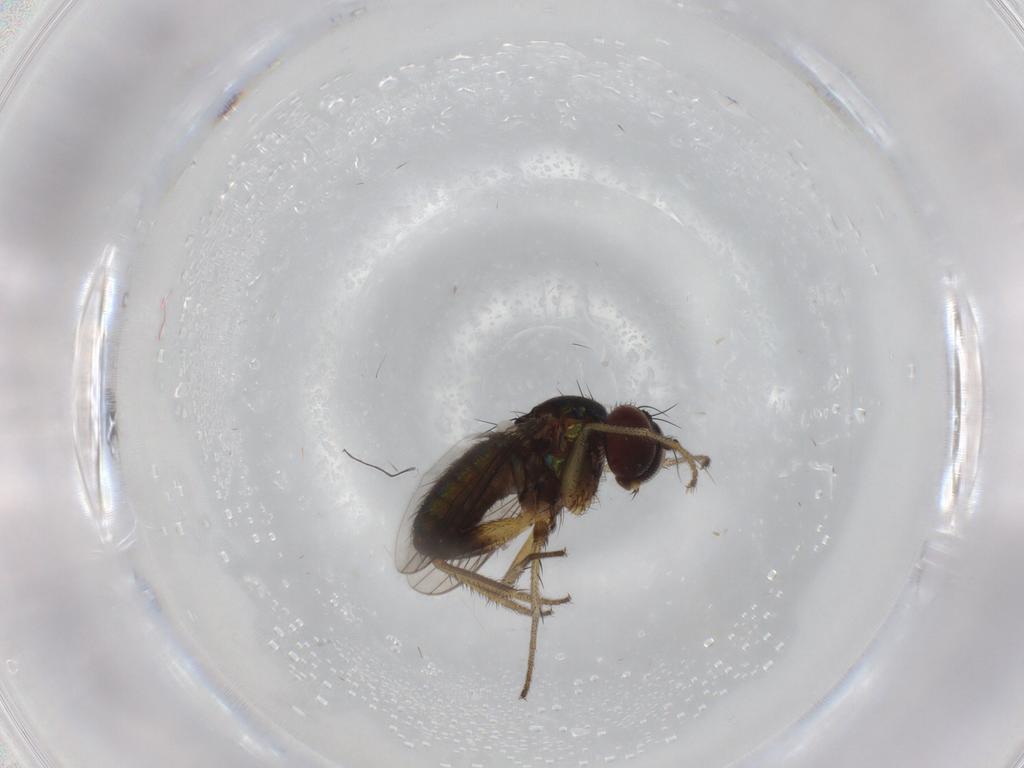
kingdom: Animalia
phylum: Arthropoda
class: Insecta
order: Diptera
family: Dolichopodidae
